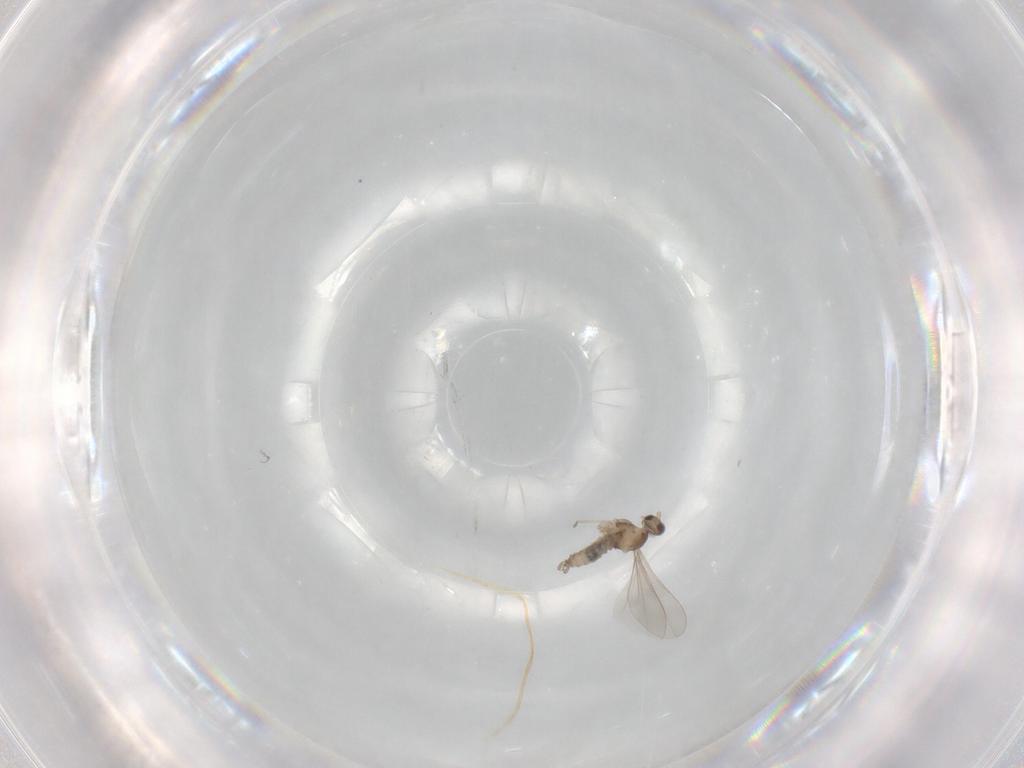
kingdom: Animalia
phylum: Arthropoda
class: Insecta
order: Diptera
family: Cecidomyiidae
